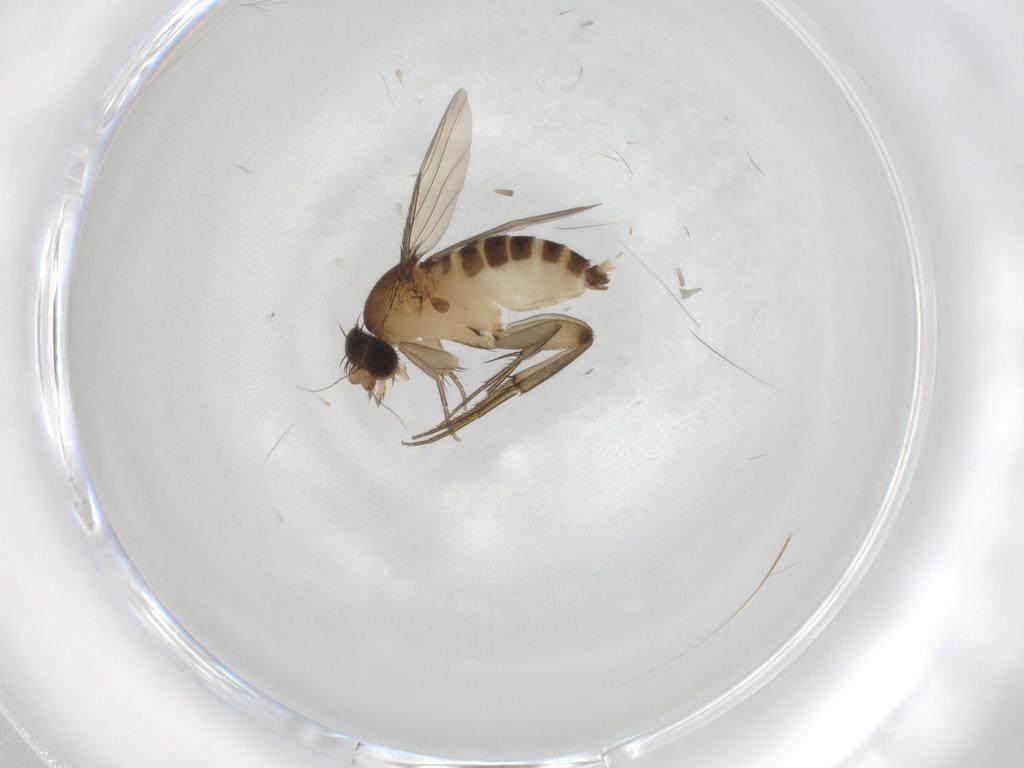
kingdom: Animalia
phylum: Arthropoda
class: Insecta
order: Diptera
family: Phoridae
